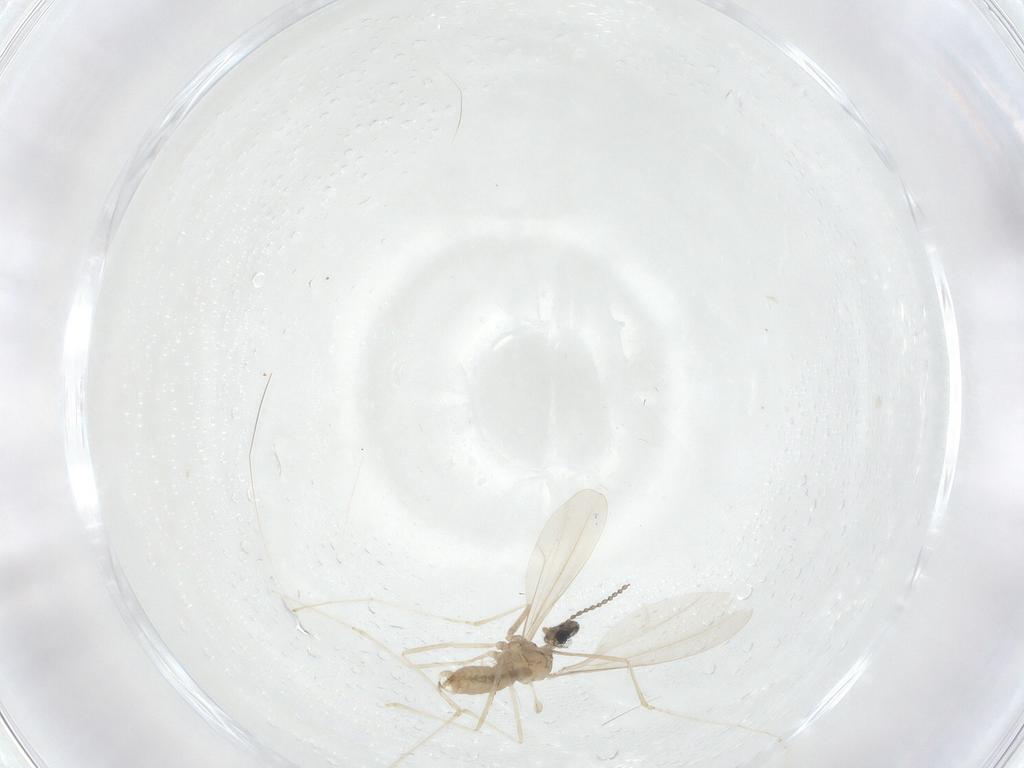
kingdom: Animalia
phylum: Arthropoda
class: Insecta
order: Diptera
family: Cecidomyiidae
